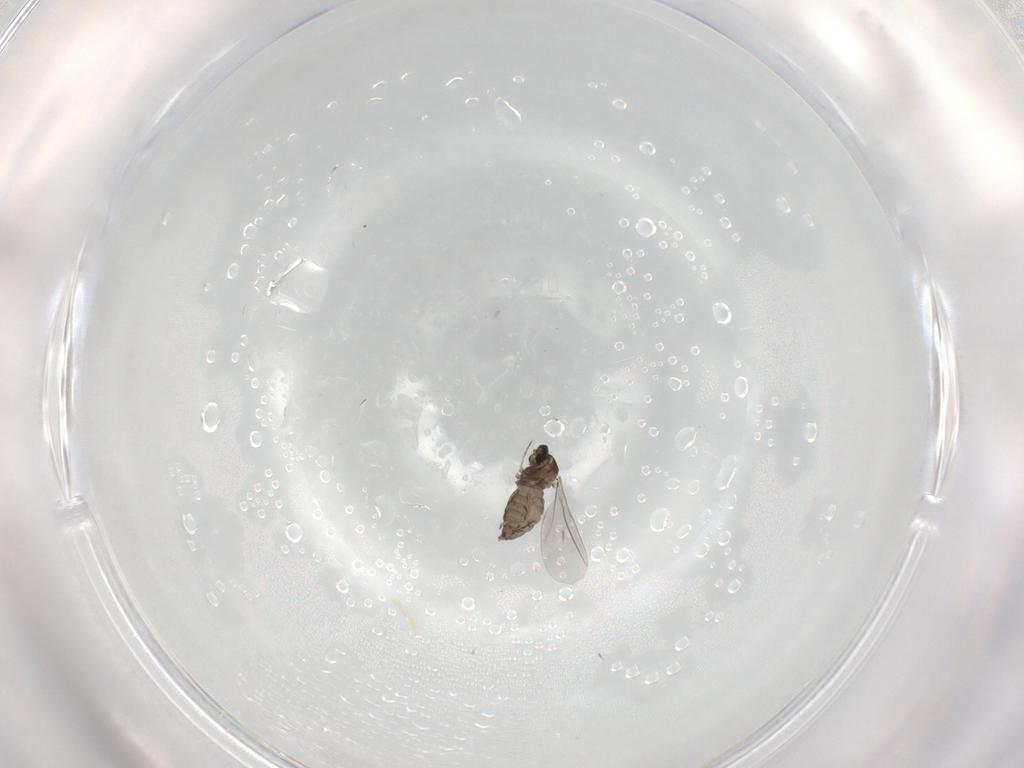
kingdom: Animalia
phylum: Arthropoda
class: Insecta
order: Diptera
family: Cecidomyiidae
